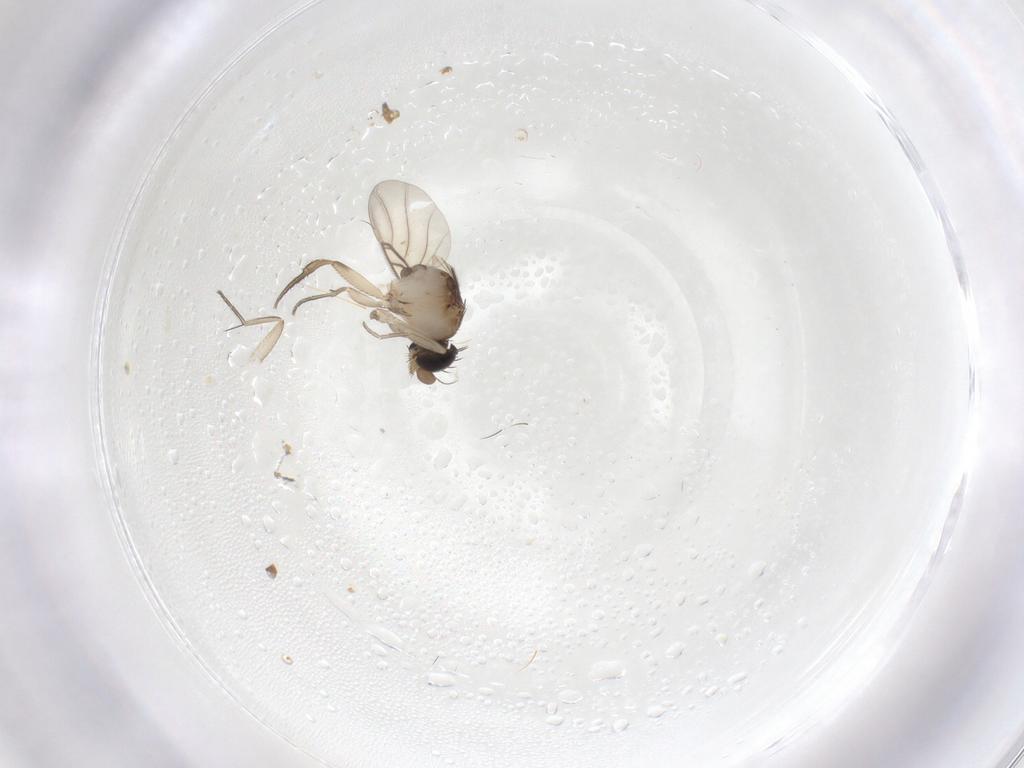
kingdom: Animalia
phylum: Arthropoda
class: Insecta
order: Diptera
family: Phoridae
